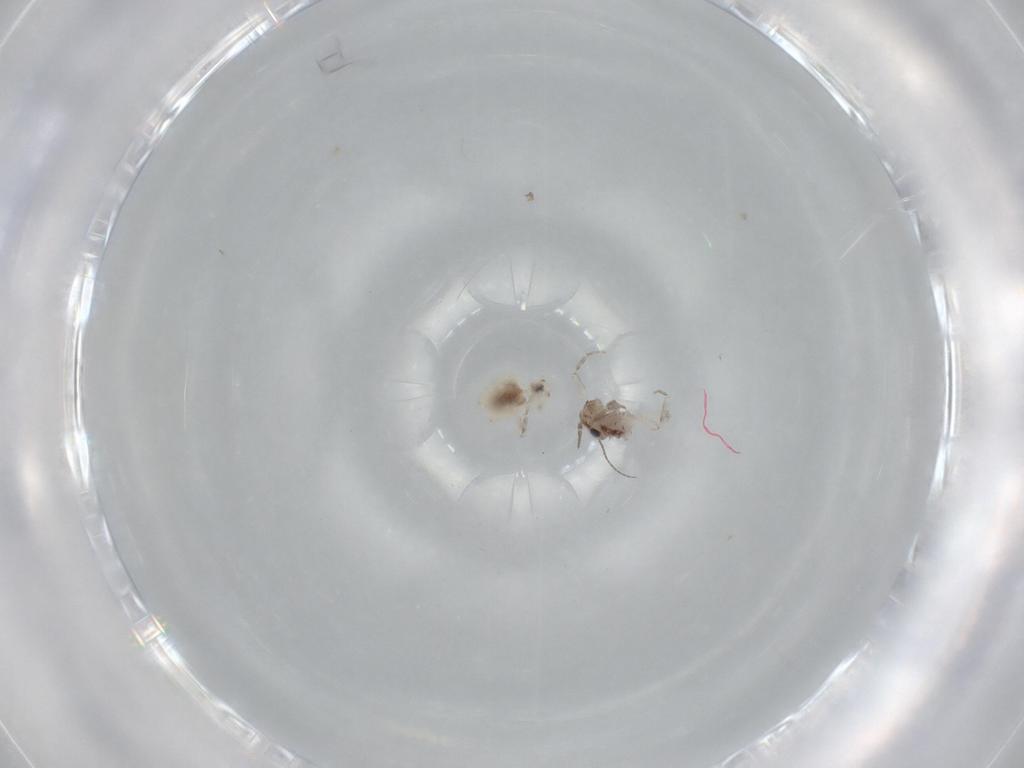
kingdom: Animalia
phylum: Arthropoda
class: Insecta
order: Psocodea
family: Lepidopsocidae
